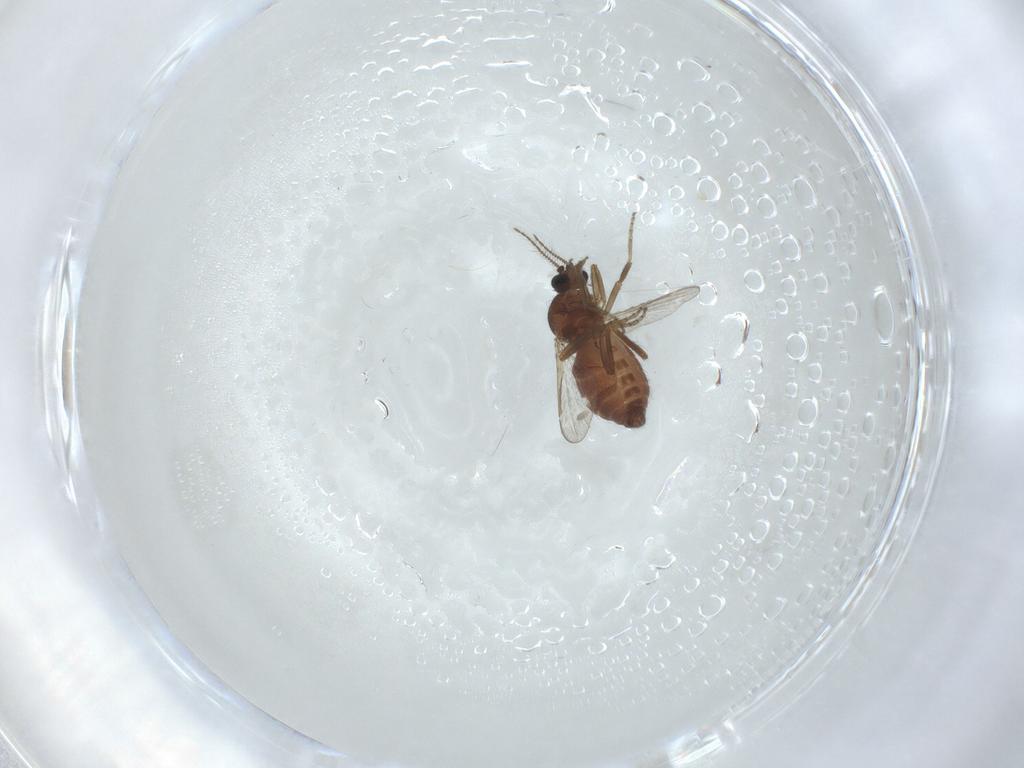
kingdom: Animalia
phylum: Arthropoda
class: Insecta
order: Diptera
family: Ceratopogonidae
